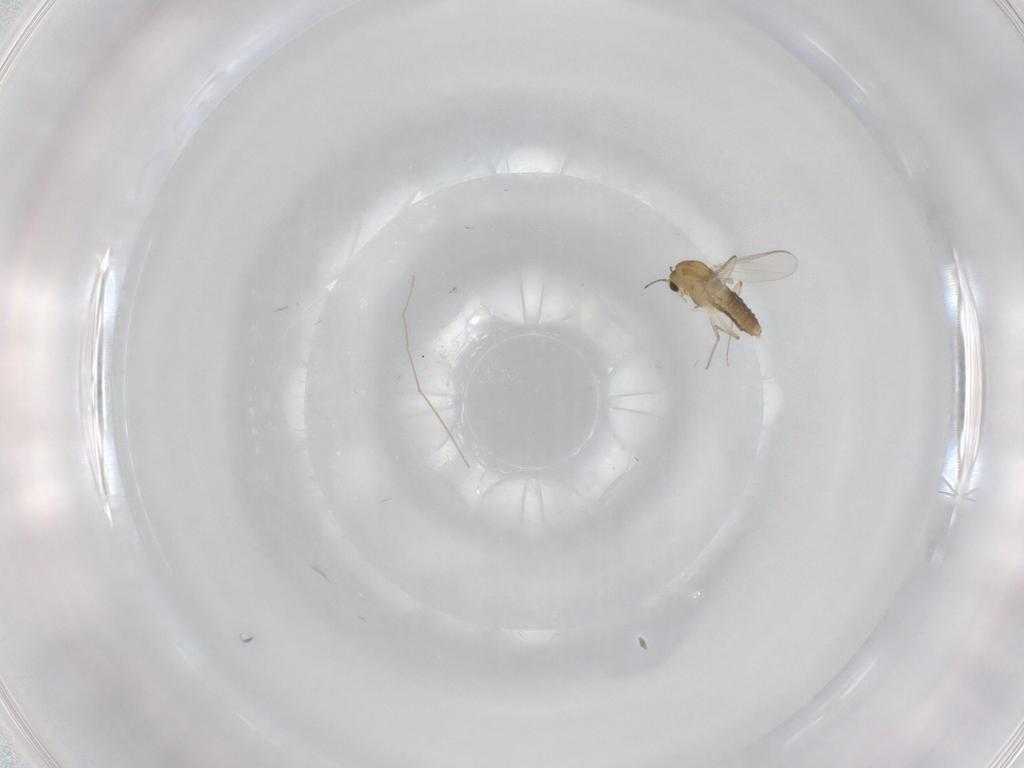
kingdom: Animalia
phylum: Arthropoda
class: Insecta
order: Diptera
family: Chironomidae
